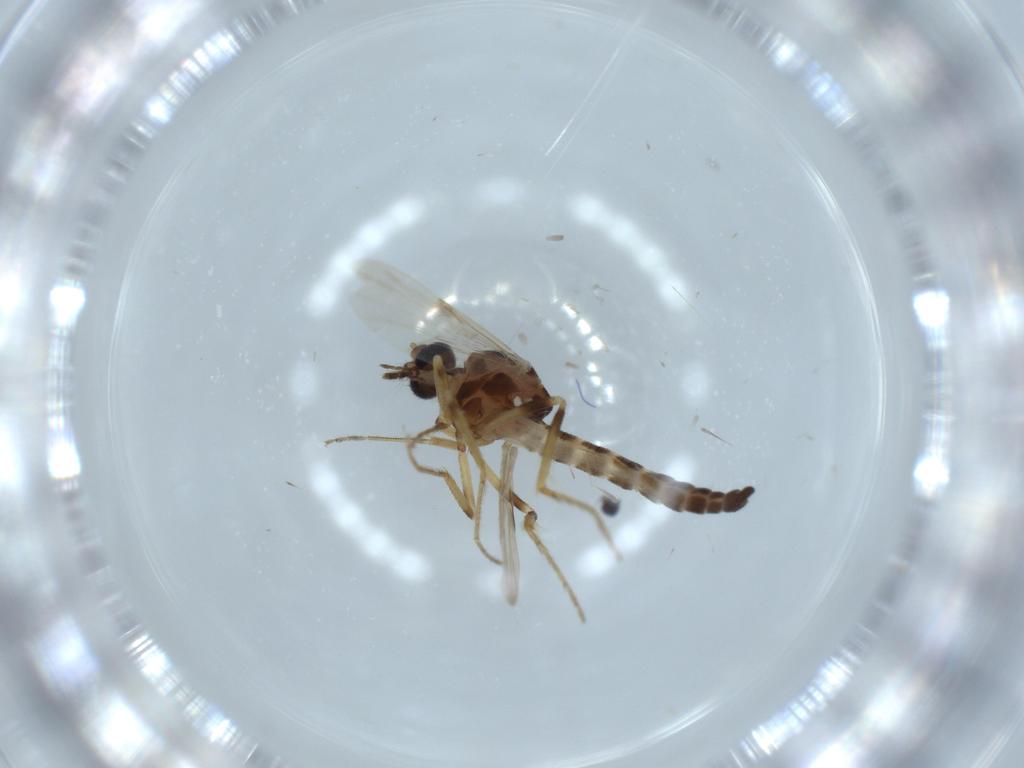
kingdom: Animalia
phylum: Arthropoda
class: Insecta
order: Diptera
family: Ceratopogonidae
